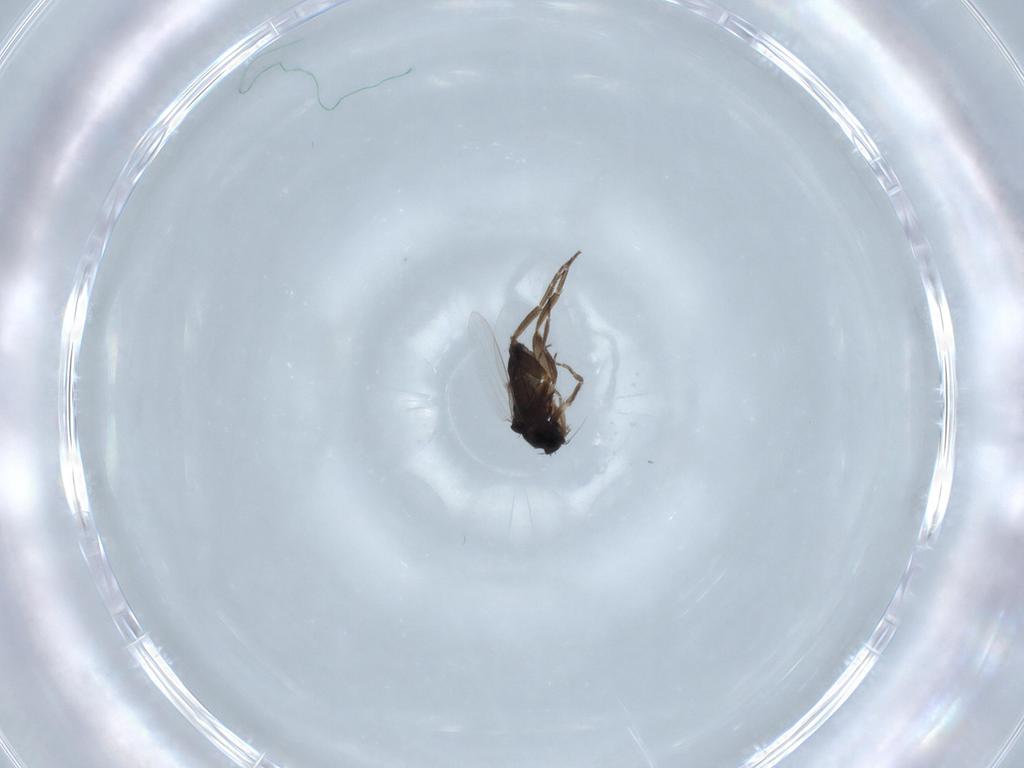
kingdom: Animalia
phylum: Arthropoda
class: Insecta
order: Diptera
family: Phoridae
